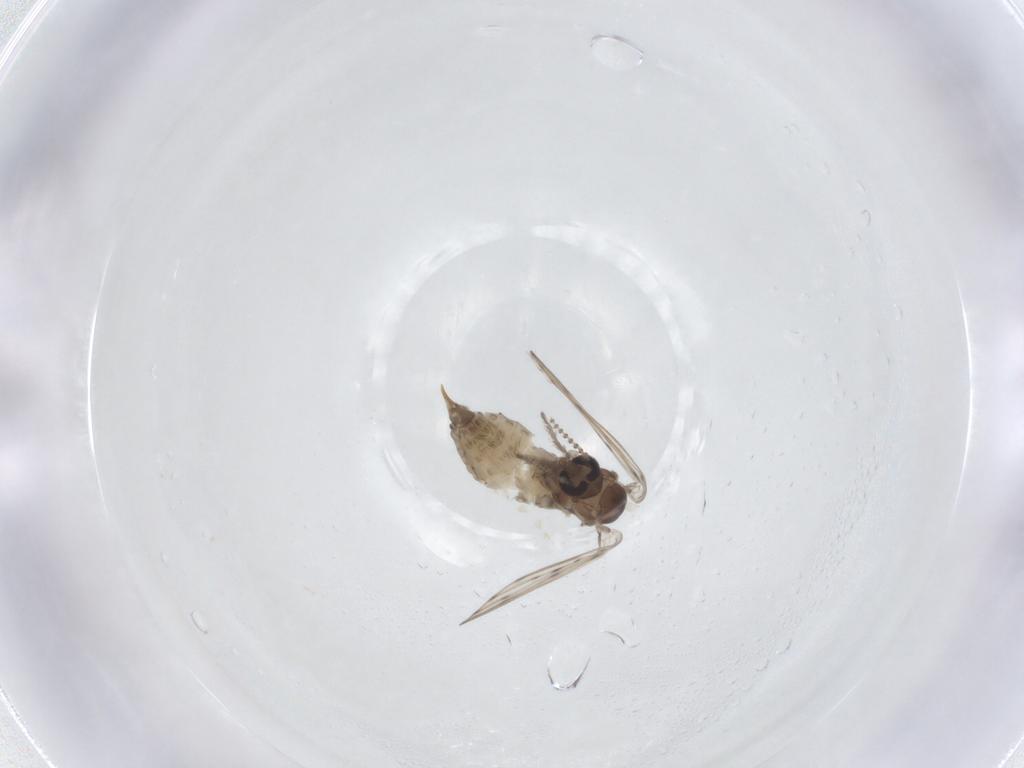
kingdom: Animalia
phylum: Arthropoda
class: Insecta
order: Diptera
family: Psychodidae
